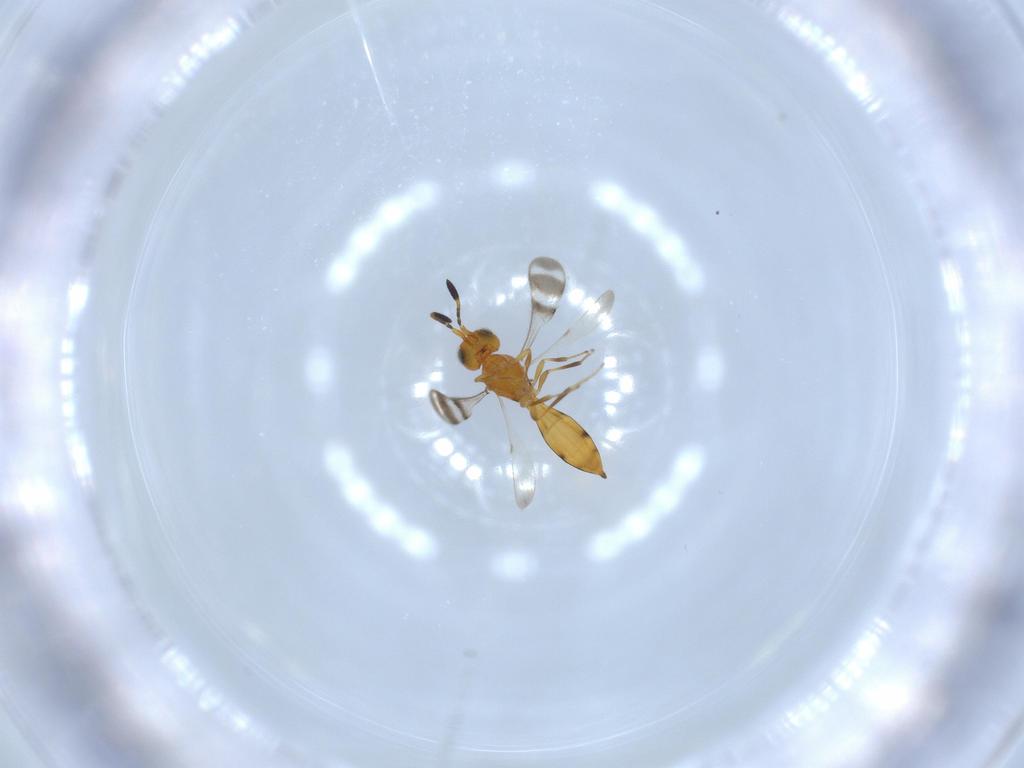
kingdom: Animalia
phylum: Arthropoda
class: Insecta
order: Hymenoptera
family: Scelionidae
